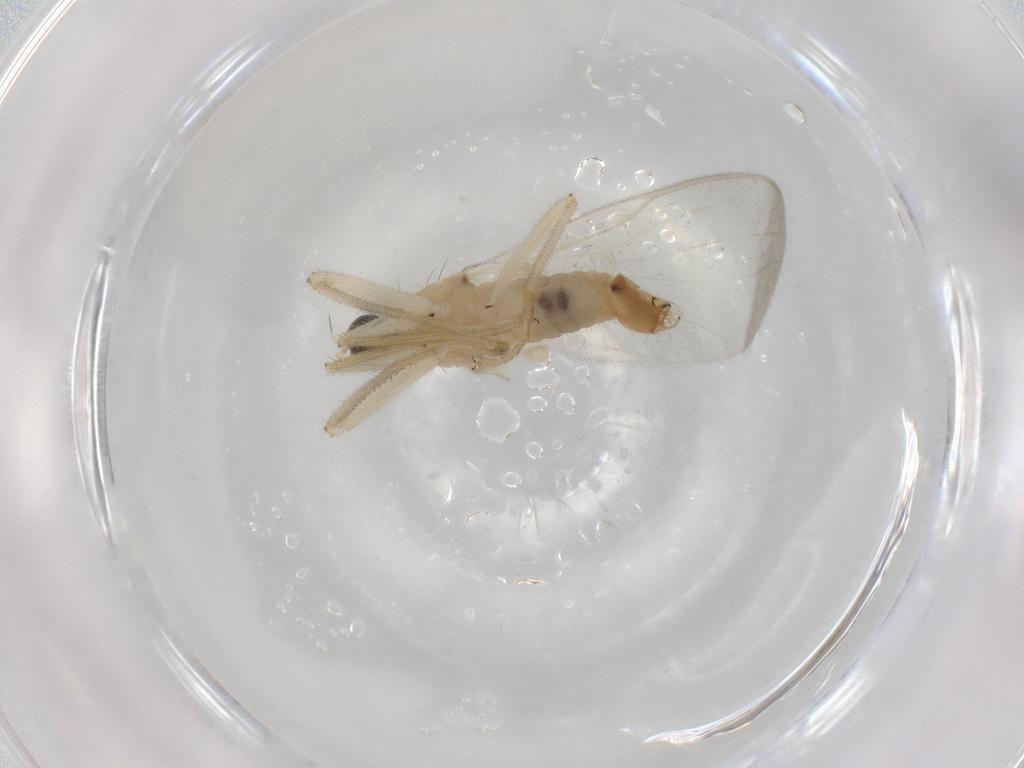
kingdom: Animalia
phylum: Arthropoda
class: Insecta
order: Diptera
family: Hybotidae
